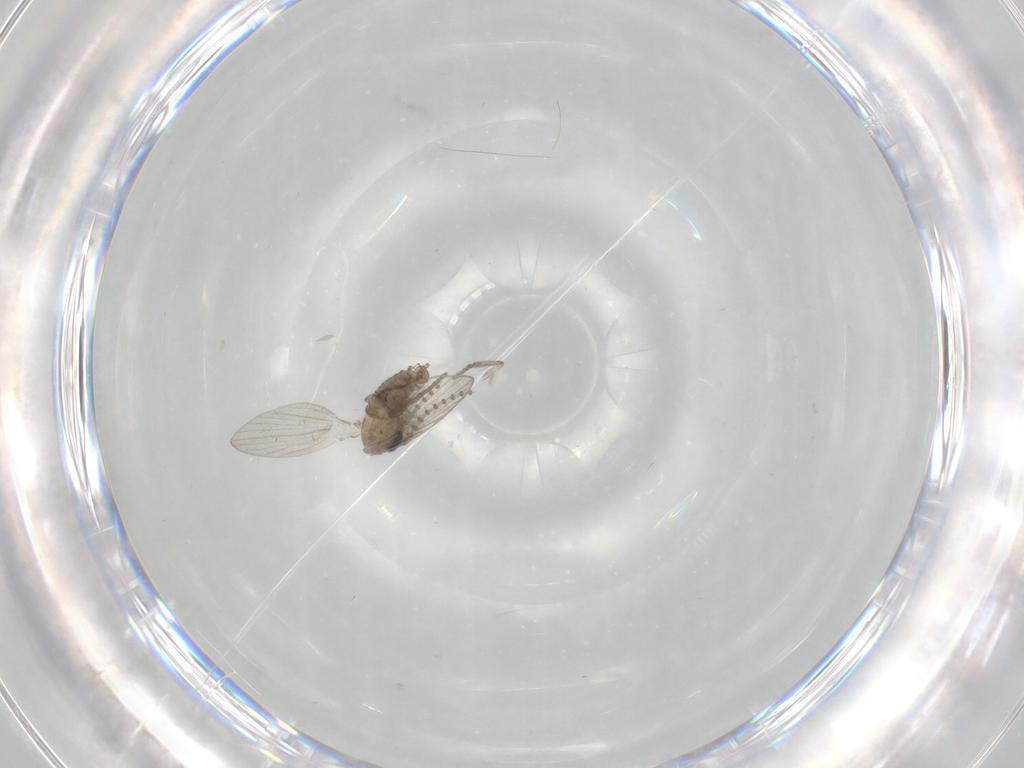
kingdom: Animalia
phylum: Arthropoda
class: Insecta
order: Diptera
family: Psychodidae
